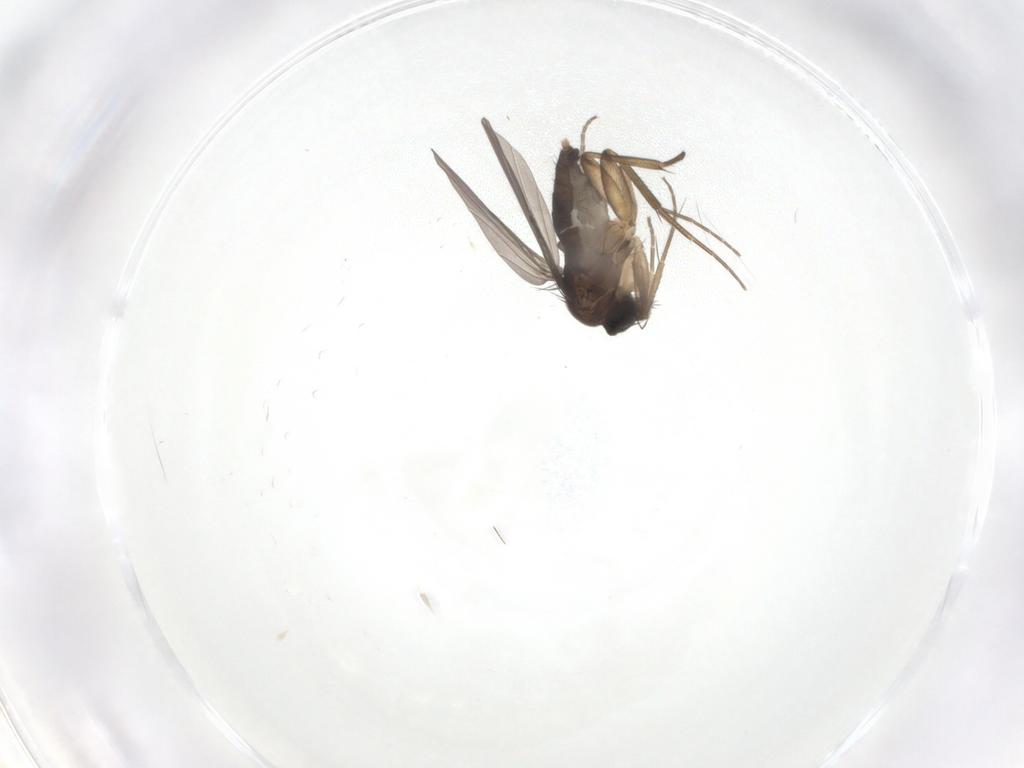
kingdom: Animalia
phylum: Arthropoda
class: Insecta
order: Diptera
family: Phoridae
